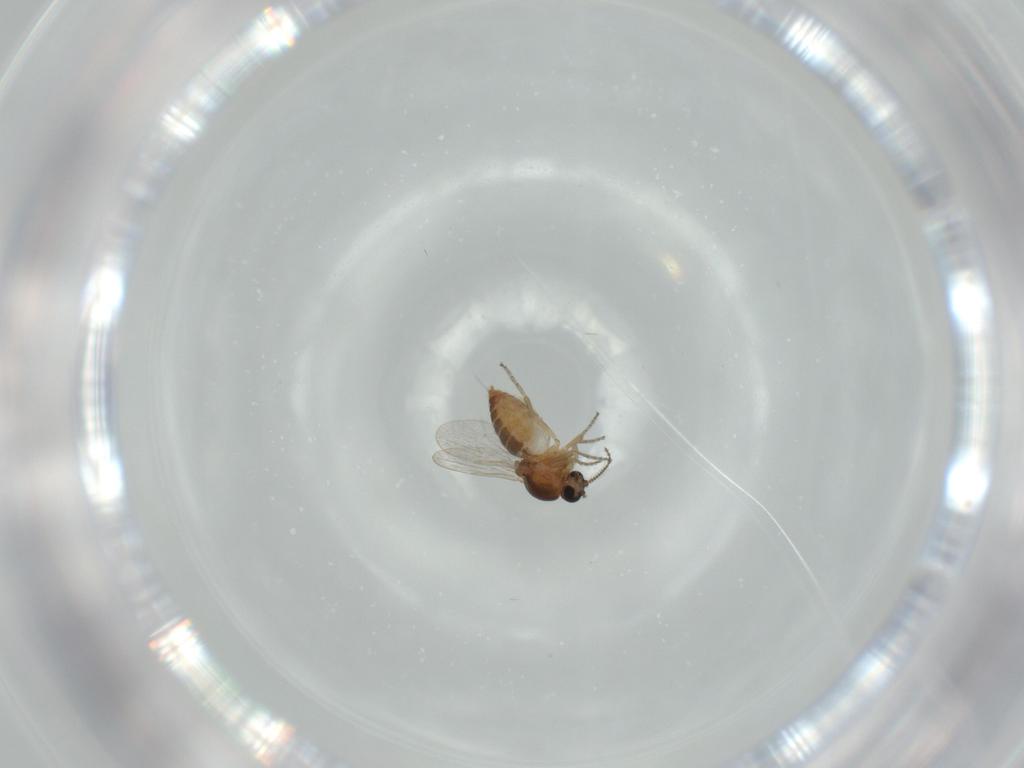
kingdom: Animalia
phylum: Arthropoda
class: Insecta
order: Diptera
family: Ceratopogonidae
